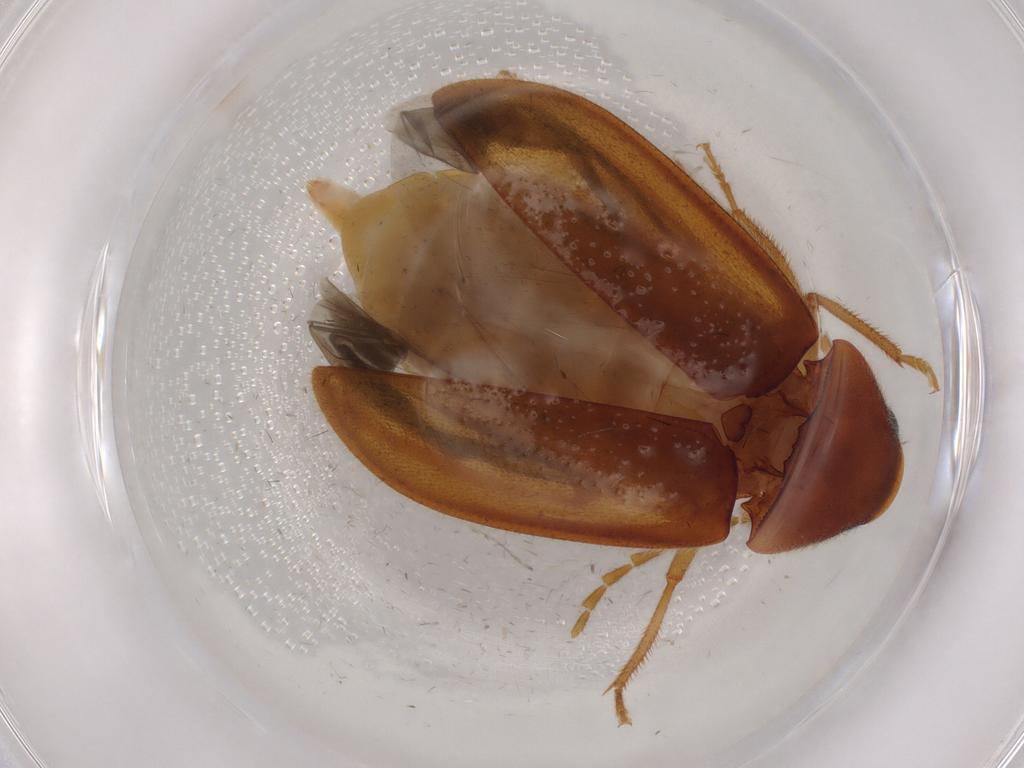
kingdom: Animalia
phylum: Arthropoda
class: Insecta
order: Coleoptera
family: Ptilodactylidae
